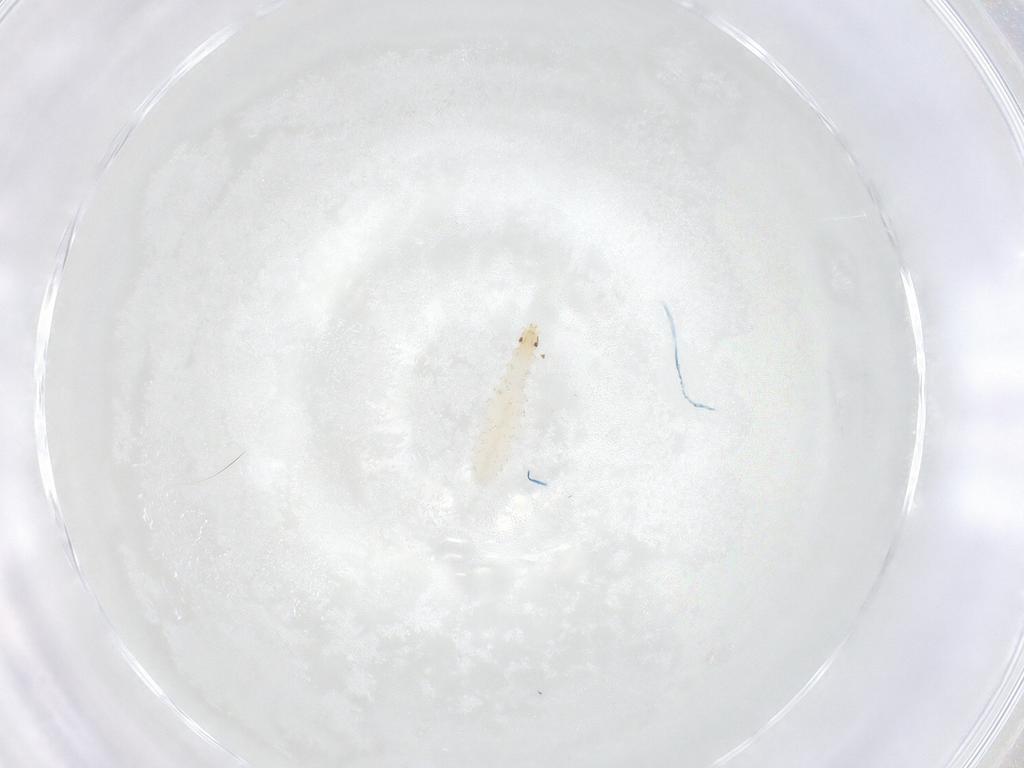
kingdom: Animalia
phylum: Arthropoda
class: Insecta
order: Diptera
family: Stratiomyidae
